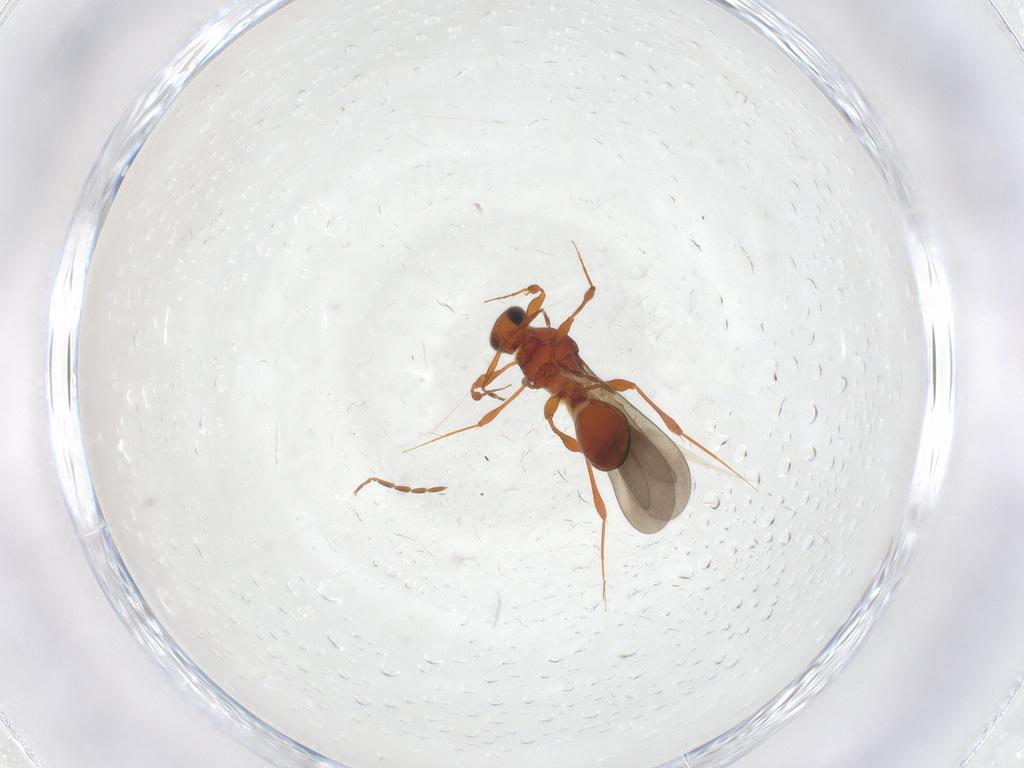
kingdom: Animalia
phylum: Arthropoda
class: Insecta
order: Hymenoptera
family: Platygastridae
